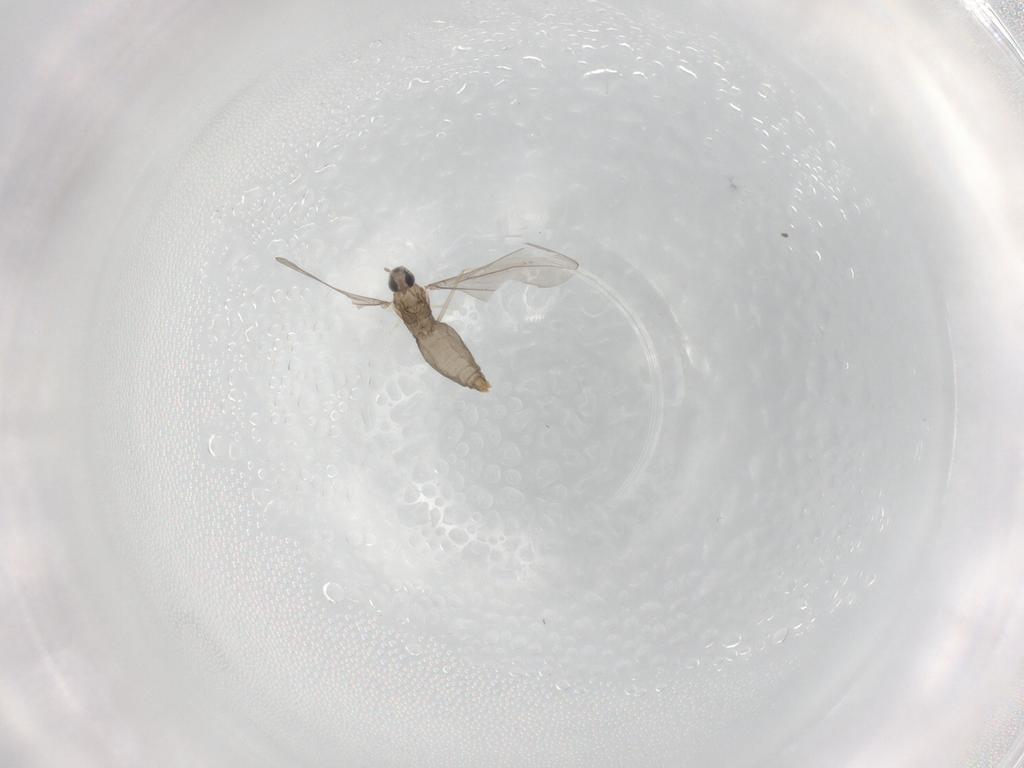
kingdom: Animalia
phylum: Arthropoda
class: Insecta
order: Diptera
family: Cecidomyiidae
